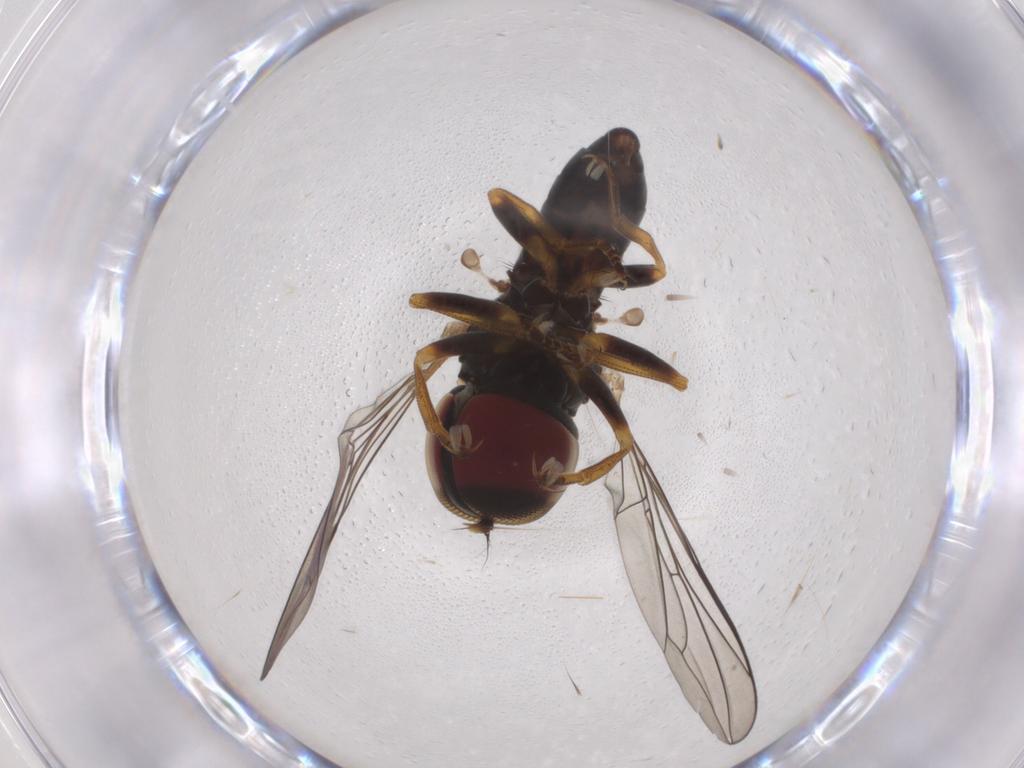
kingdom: Animalia
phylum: Arthropoda
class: Insecta
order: Diptera
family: Pipunculidae
